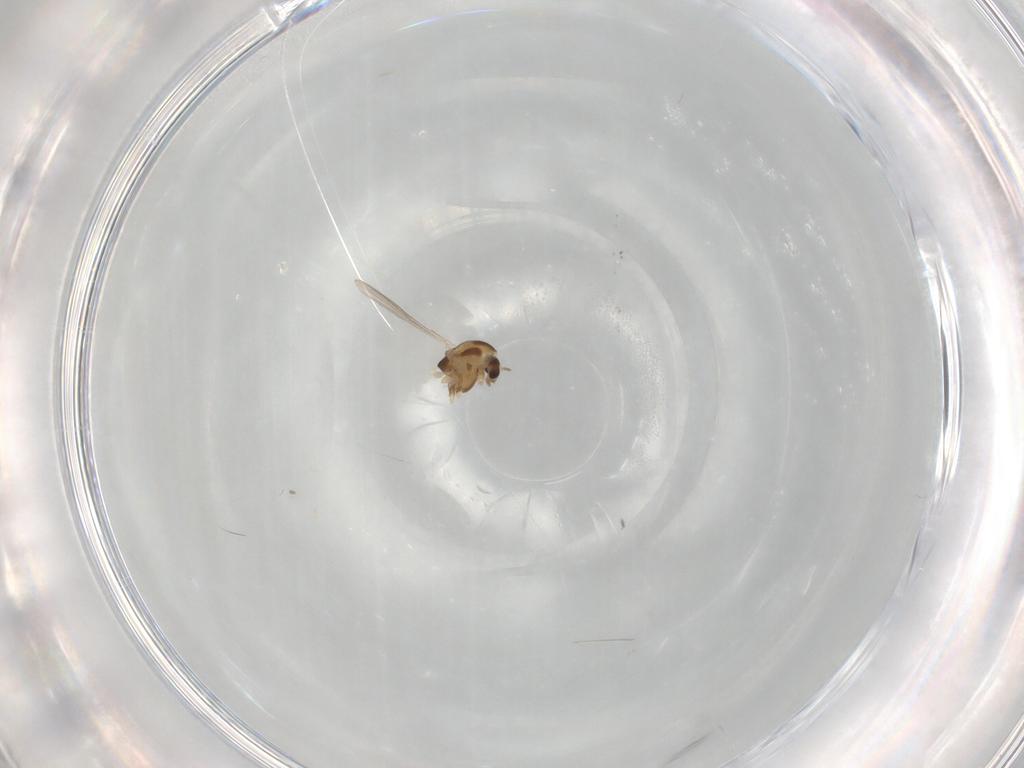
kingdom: Animalia
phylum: Arthropoda
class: Insecta
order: Diptera
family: Chironomidae
